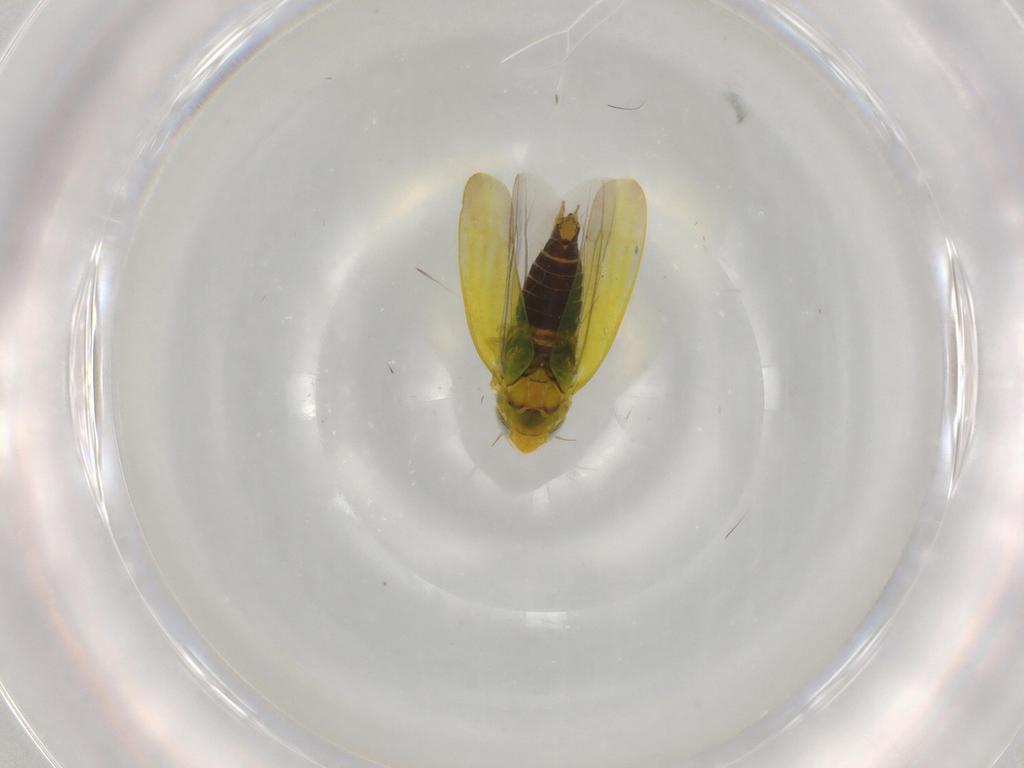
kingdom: Animalia
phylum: Arthropoda
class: Insecta
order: Hemiptera
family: Cicadellidae
